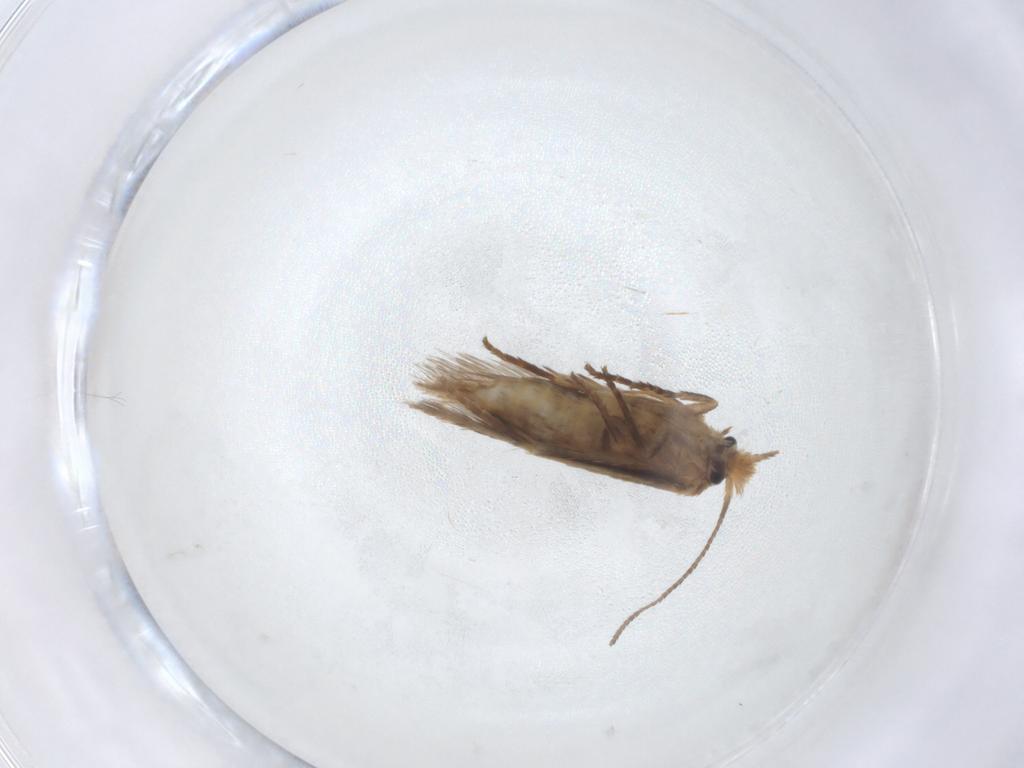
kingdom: Animalia
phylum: Arthropoda
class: Insecta
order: Lepidoptera
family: Nepticulidae
